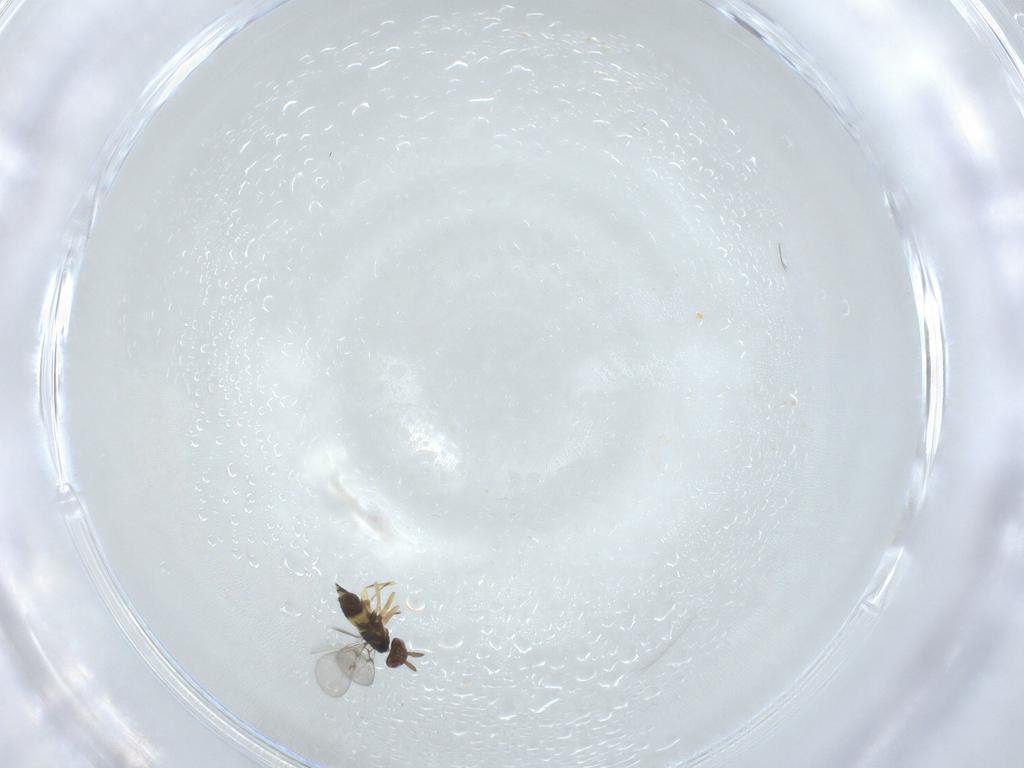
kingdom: Animalia
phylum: Arthropoda
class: Insecta
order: Hymenoptera
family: Eulophidae
